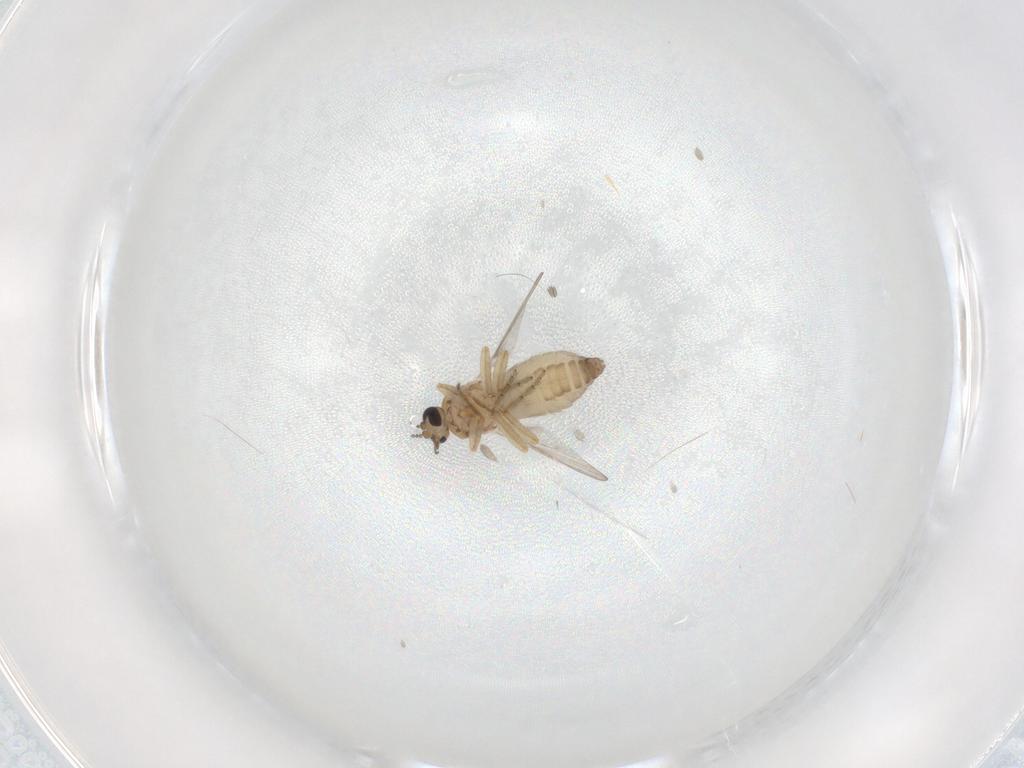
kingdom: Animalia
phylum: Arthropoda
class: Insecta
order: Diptera
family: Ceratopogonidae
